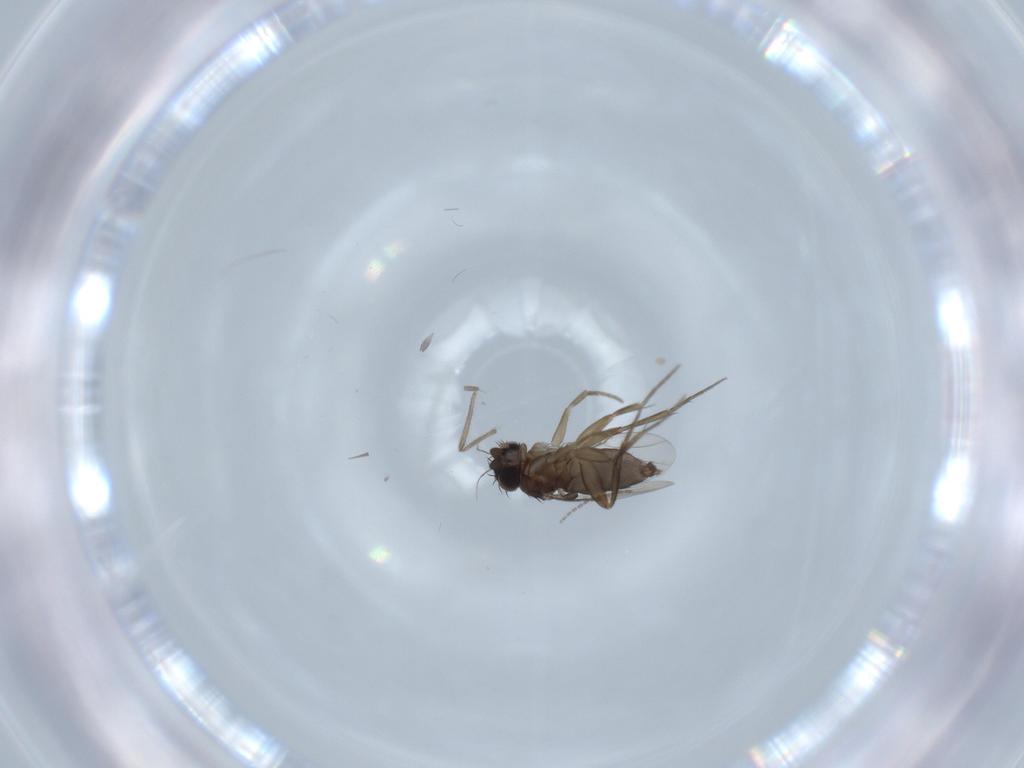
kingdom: Animalia
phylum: Arthropoda
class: Insecta
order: Diptera
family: Phoridae
